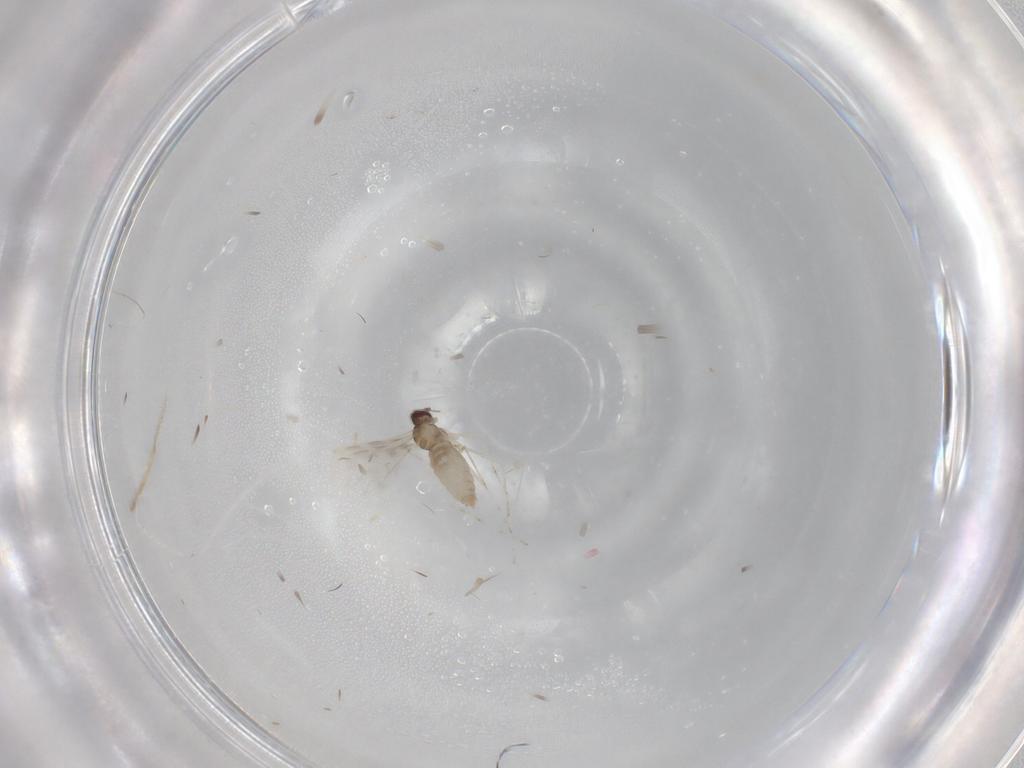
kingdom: Animalia
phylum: Arthropoda
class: Insecta
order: Diptera
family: Cecidomyiidae
